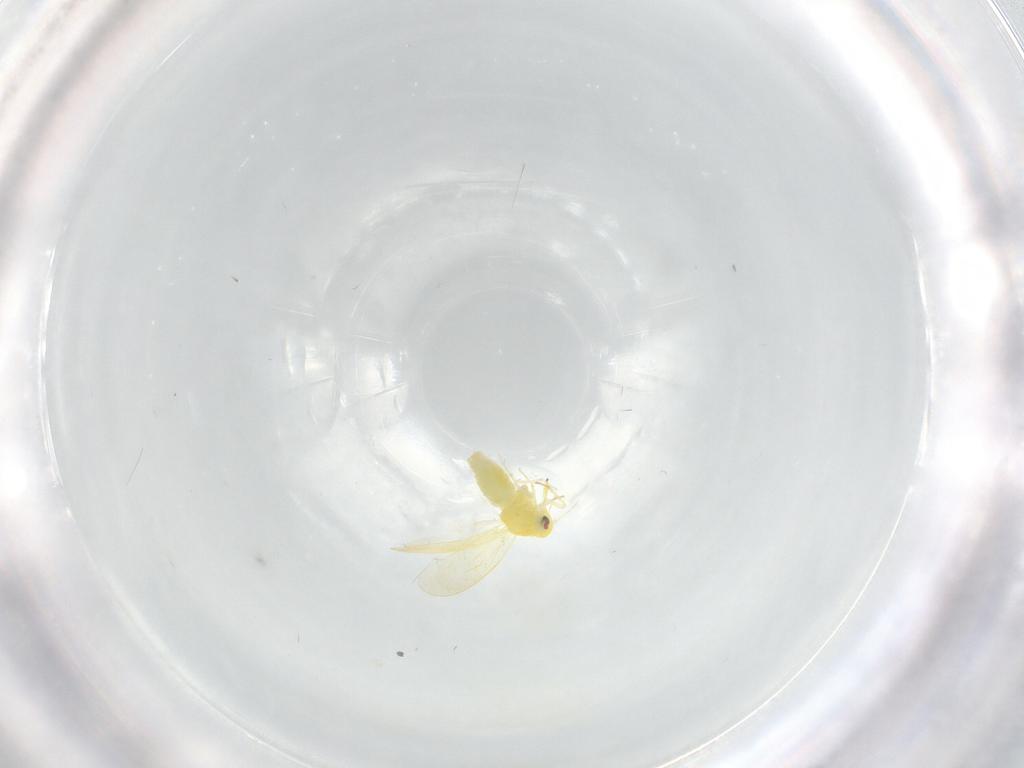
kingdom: Animalia
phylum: Arthropoda
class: Insecta
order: Hemiptera
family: Aleyrodidae
